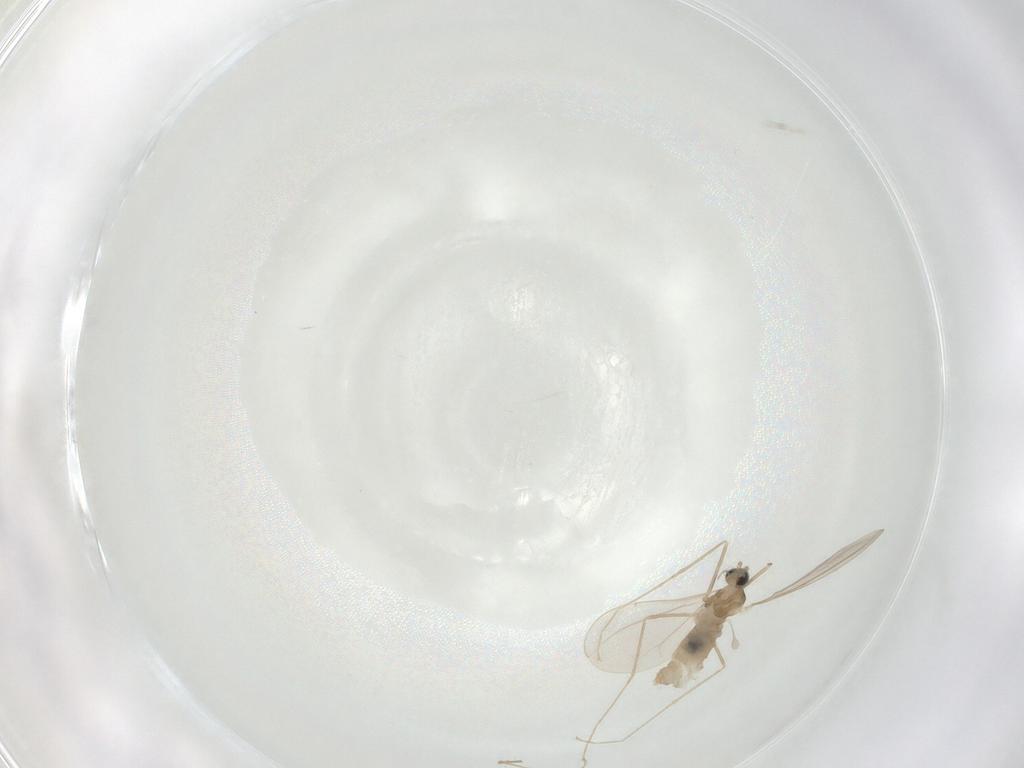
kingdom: Animalia
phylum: Arthropoda
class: Insecta
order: Diptera
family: Cecidomyiidae
